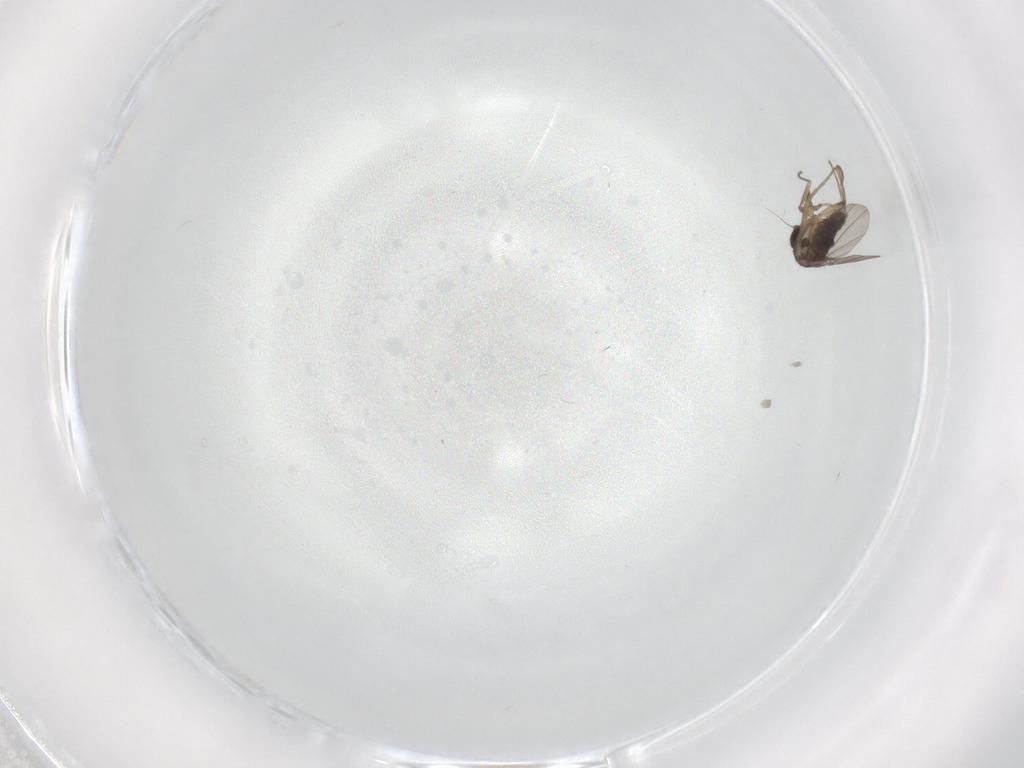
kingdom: Animalia
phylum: Arthropoda
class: Insecta
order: Diptera
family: Phoridae
